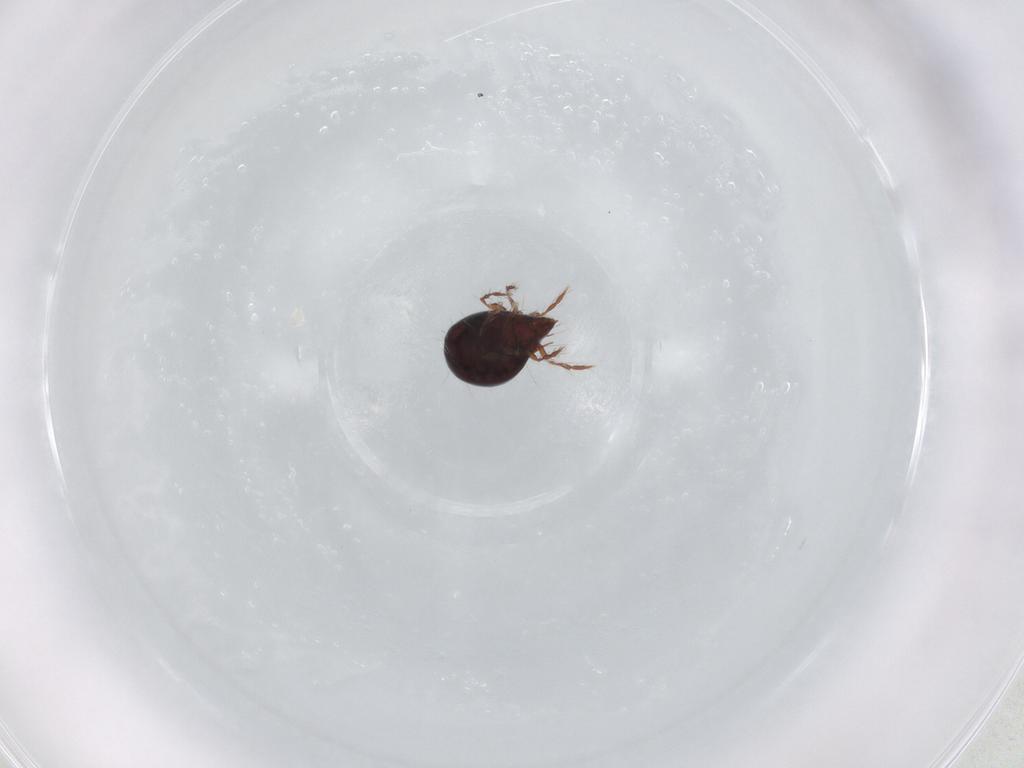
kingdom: Animalia
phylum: Arthropoda
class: Arachnida
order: Sarcoptiformes
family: Ceratoppiidae
